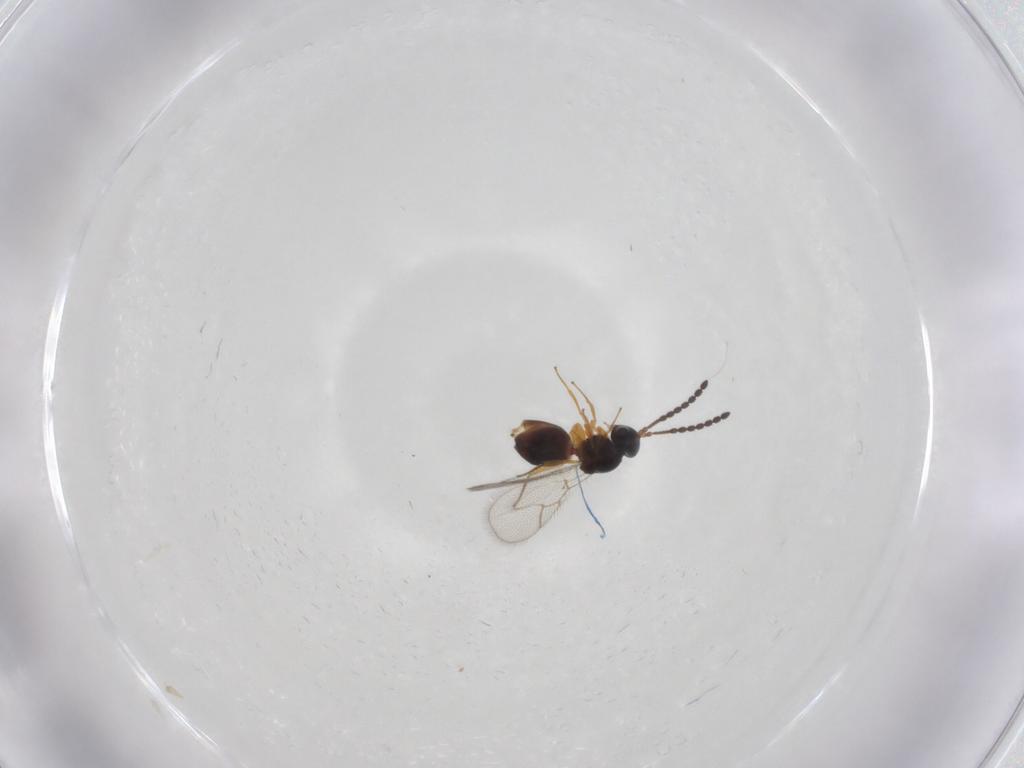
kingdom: Animalia
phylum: Arthropoda
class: Insecta
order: Hymenoptera
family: Figitidae
